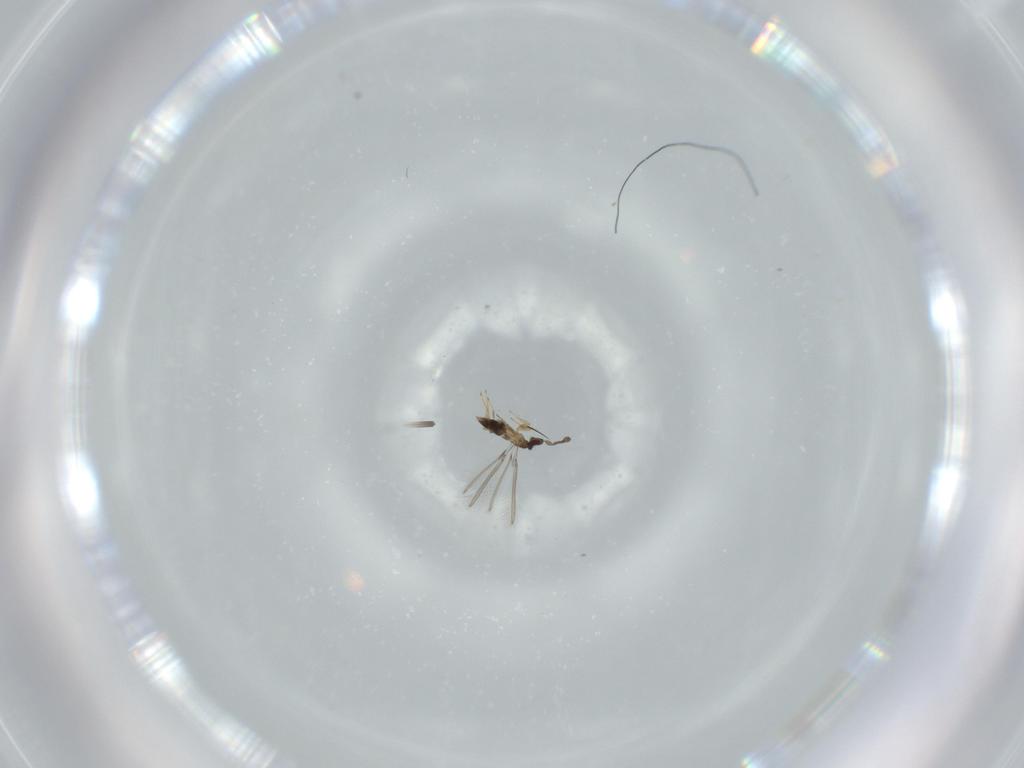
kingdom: Animalia
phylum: Arthropoda
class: Insecta
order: Hymenoptera
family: Mymaridae
